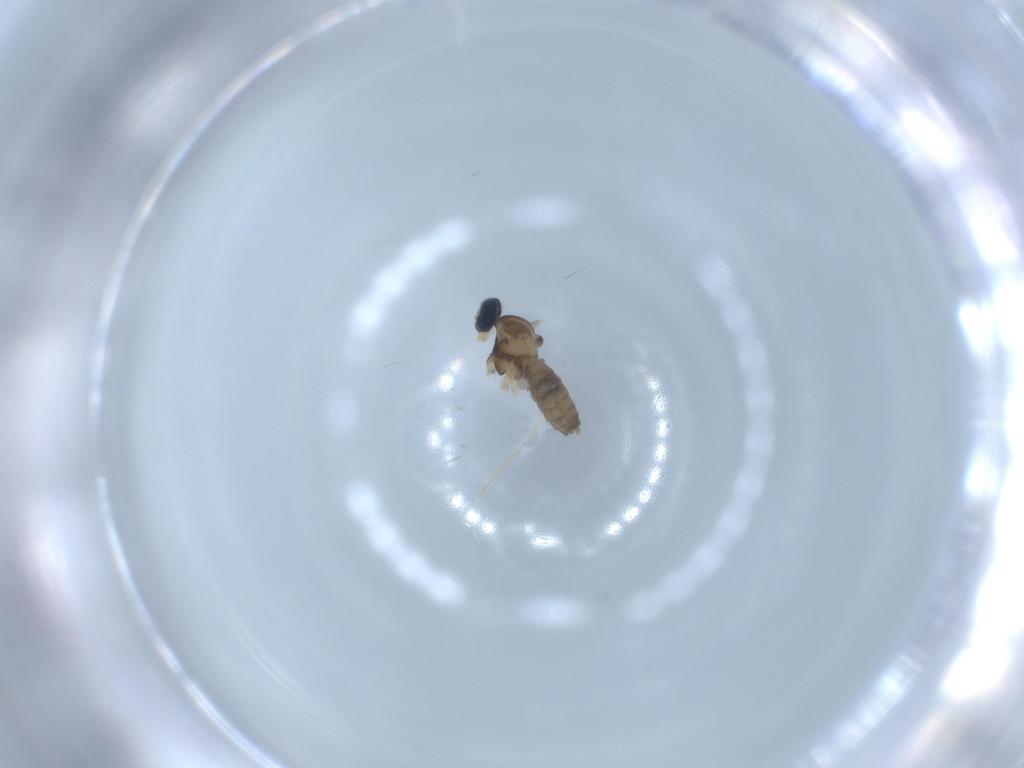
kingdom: Animalia
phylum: Arthropoda
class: Insecta
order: Diptera
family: Cecidomyiidae
